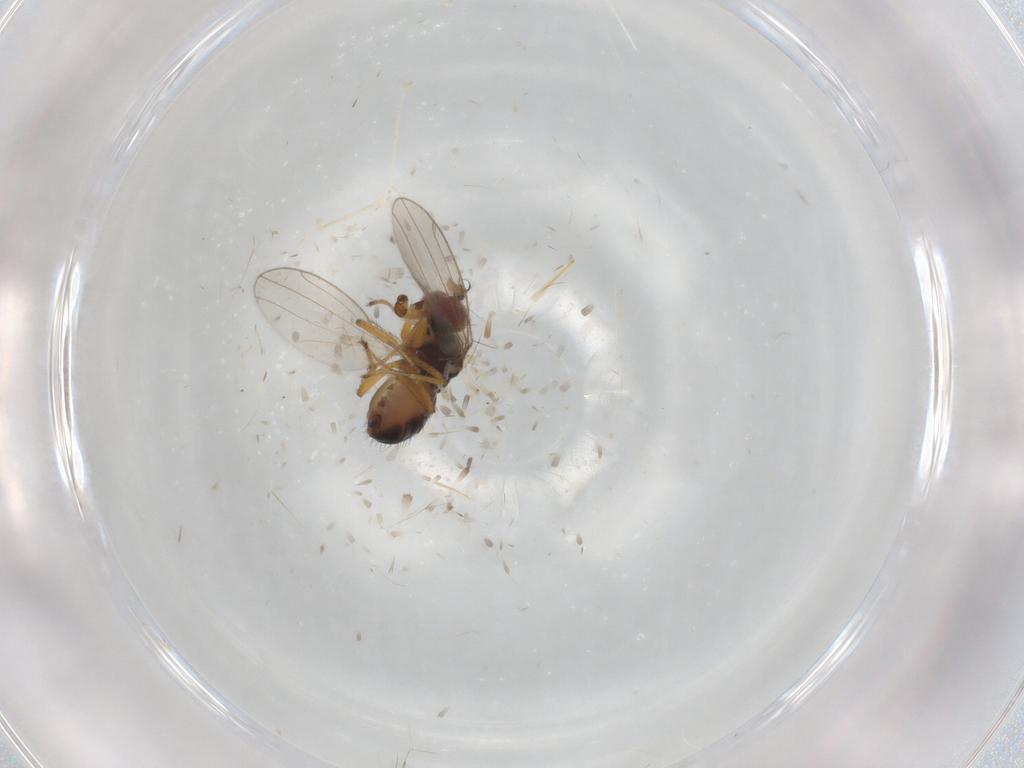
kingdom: Animalia
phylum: Arthropoda
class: Insecta
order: Diptera
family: Ephydridae
